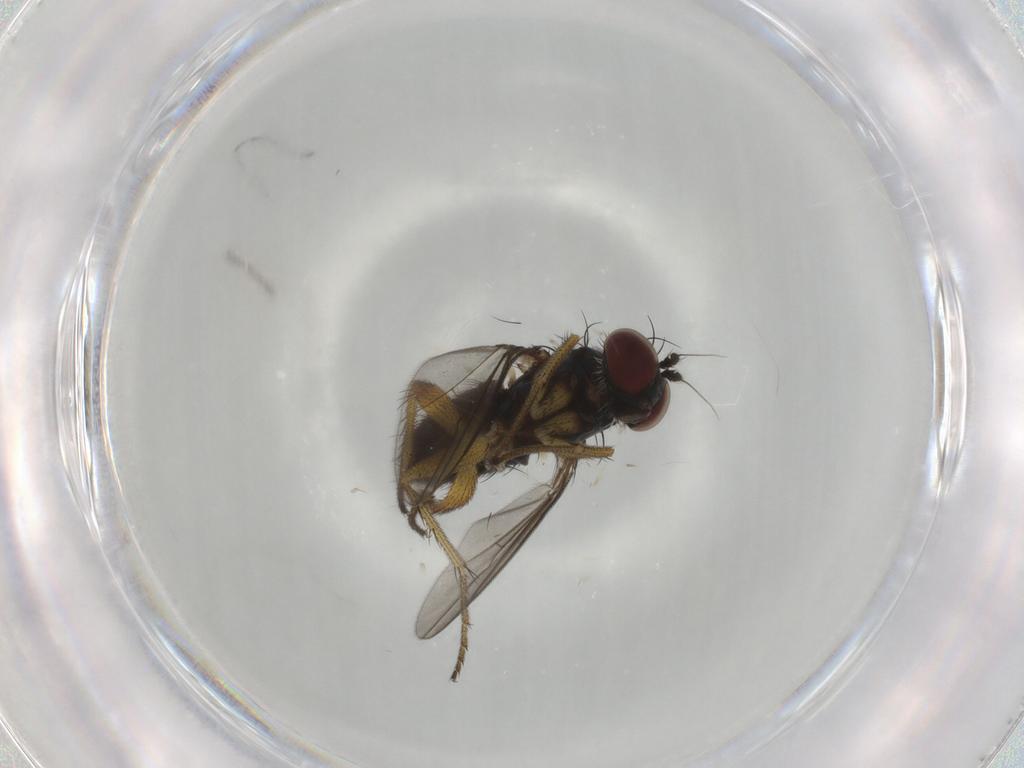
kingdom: Animalia
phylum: Arthropoda
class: Insecta
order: Diptera
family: Dolichopodidae
